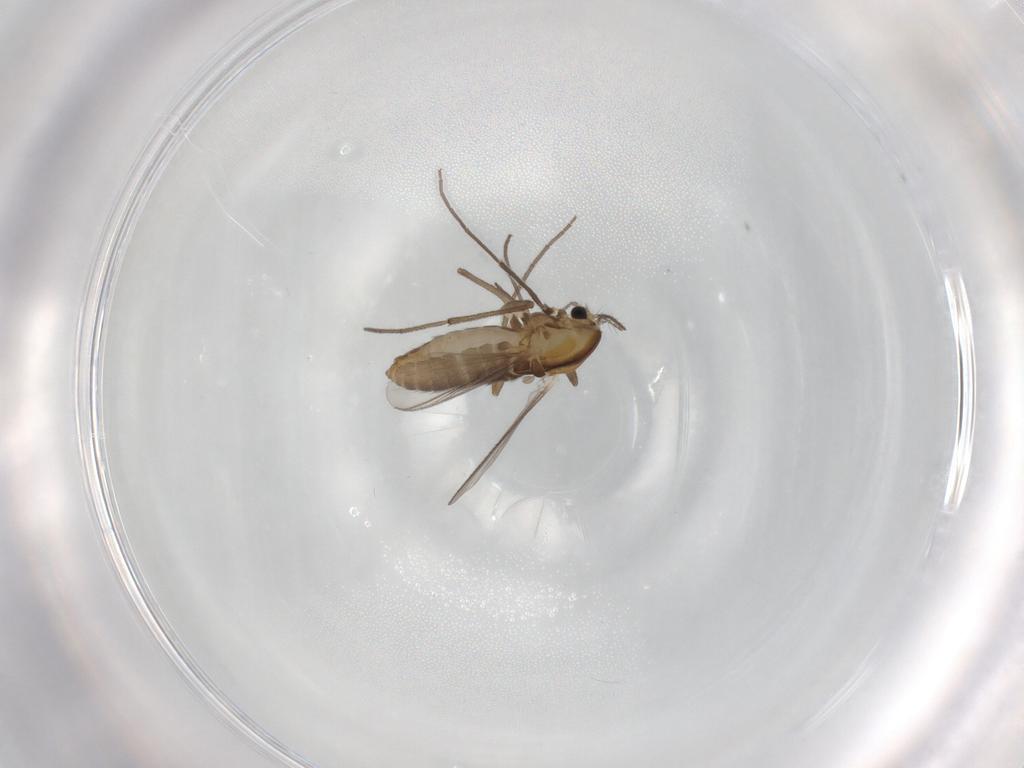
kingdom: Animalia
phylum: Arthropoda
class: Insecta
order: Diptera
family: Chironomidae
